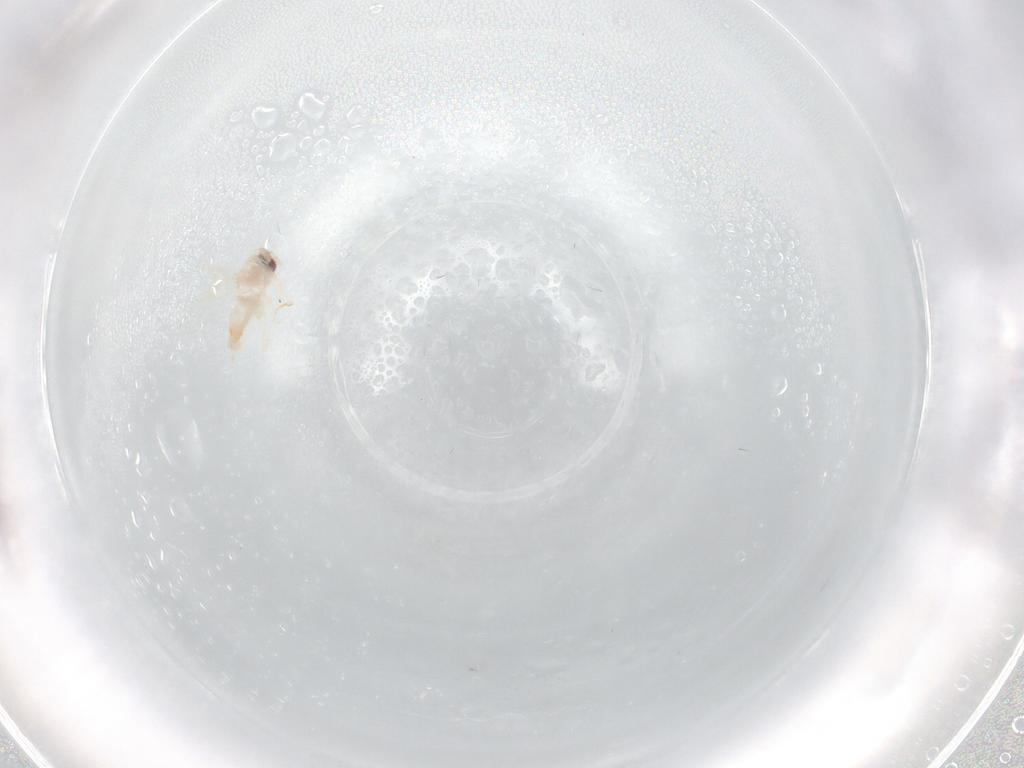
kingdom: Animalia
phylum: Arthropoda
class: Insecta
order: Hemiptera
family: Aleyrodidae
